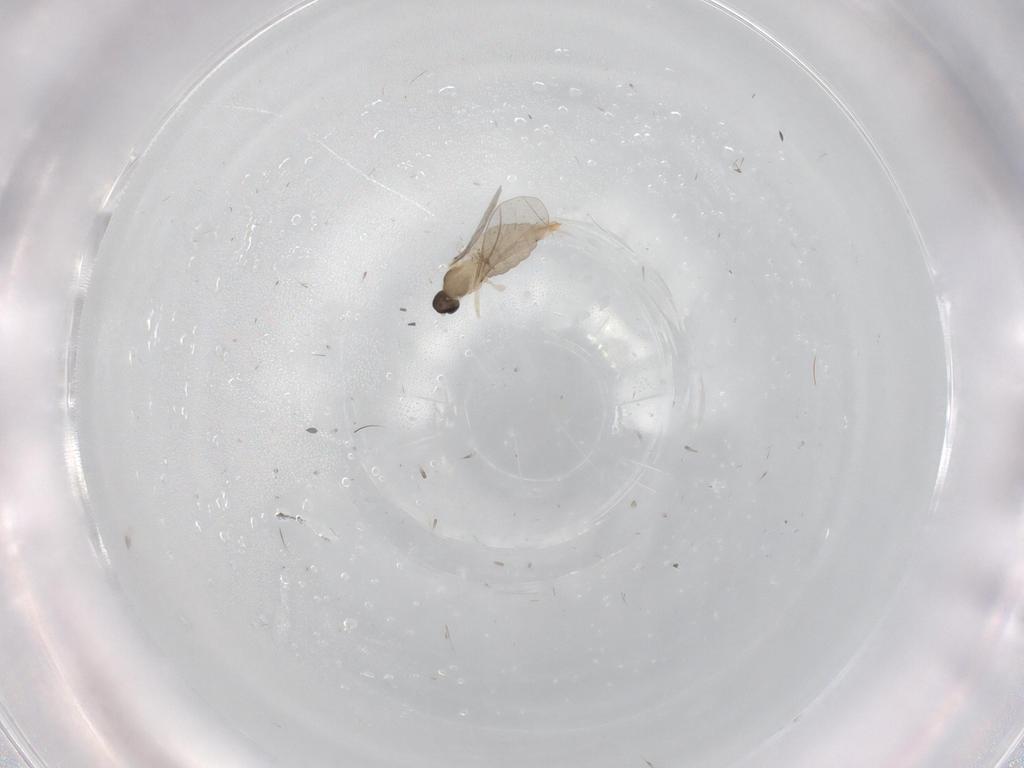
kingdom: Animalia
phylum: Arthropoda
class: Insecta
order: Diptera
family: Cecidomyiidae
